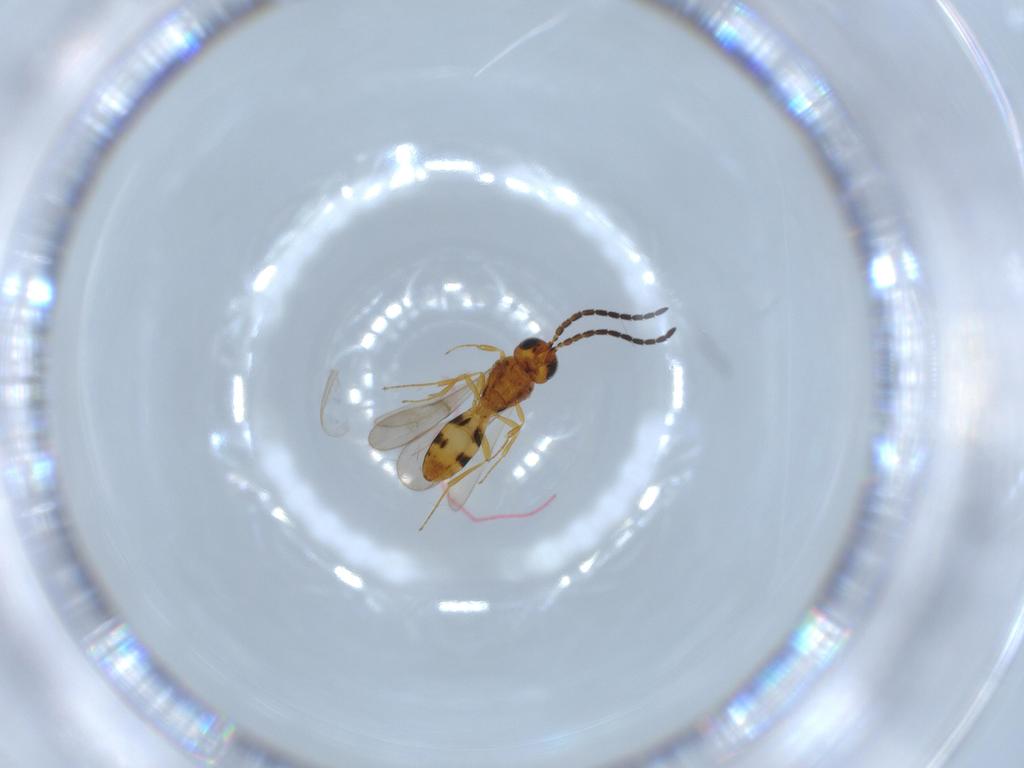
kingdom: Animalia
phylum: Arthropoda
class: Insecta
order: Hymenoptera
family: Scelionidae
